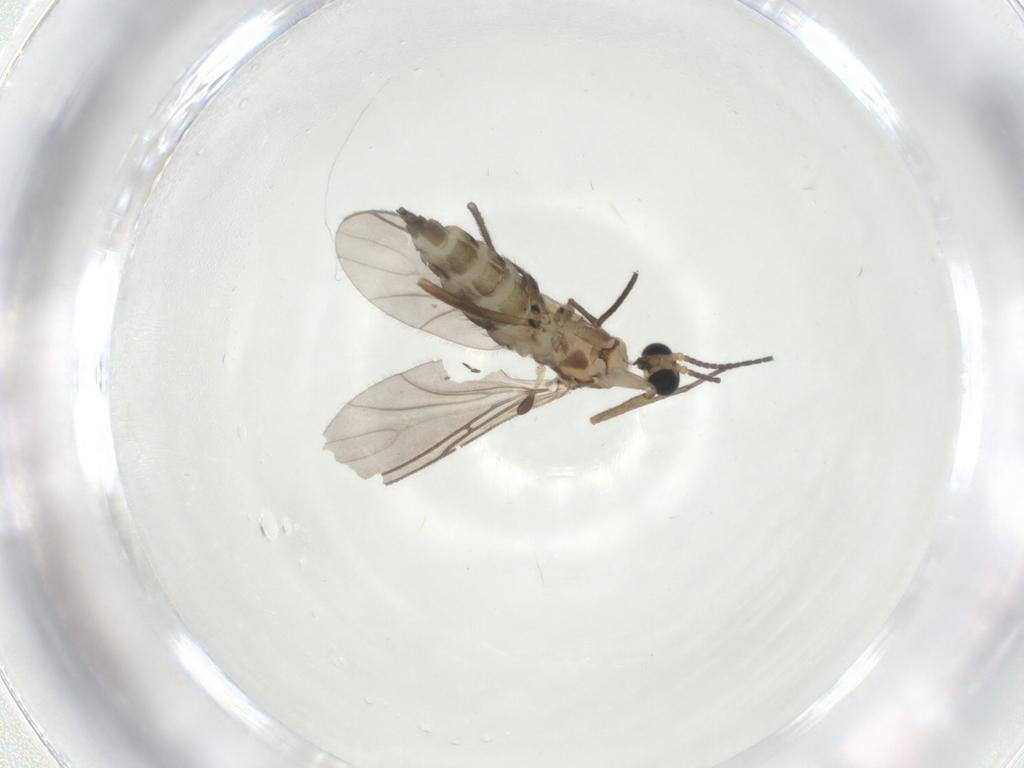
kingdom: Animalia
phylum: Arthropoda
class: Insecta
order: Diptera
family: Sciaridae
